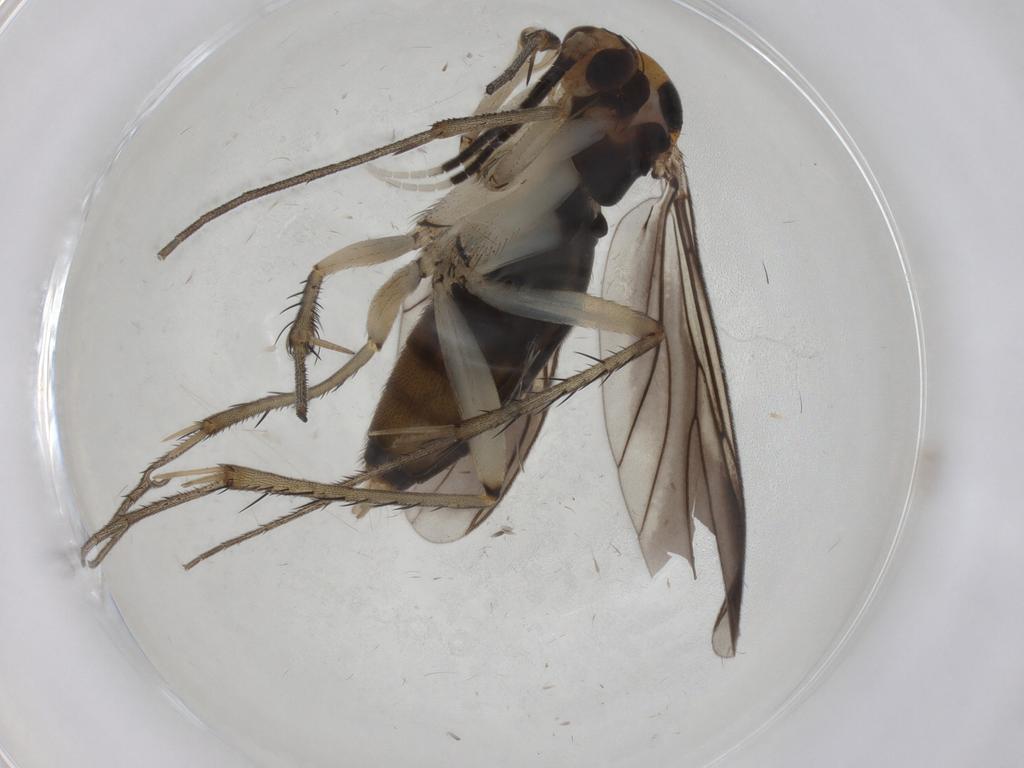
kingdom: Animalia
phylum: Arthropoda
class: Insecta
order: Diptera
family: Mycetophilidae
